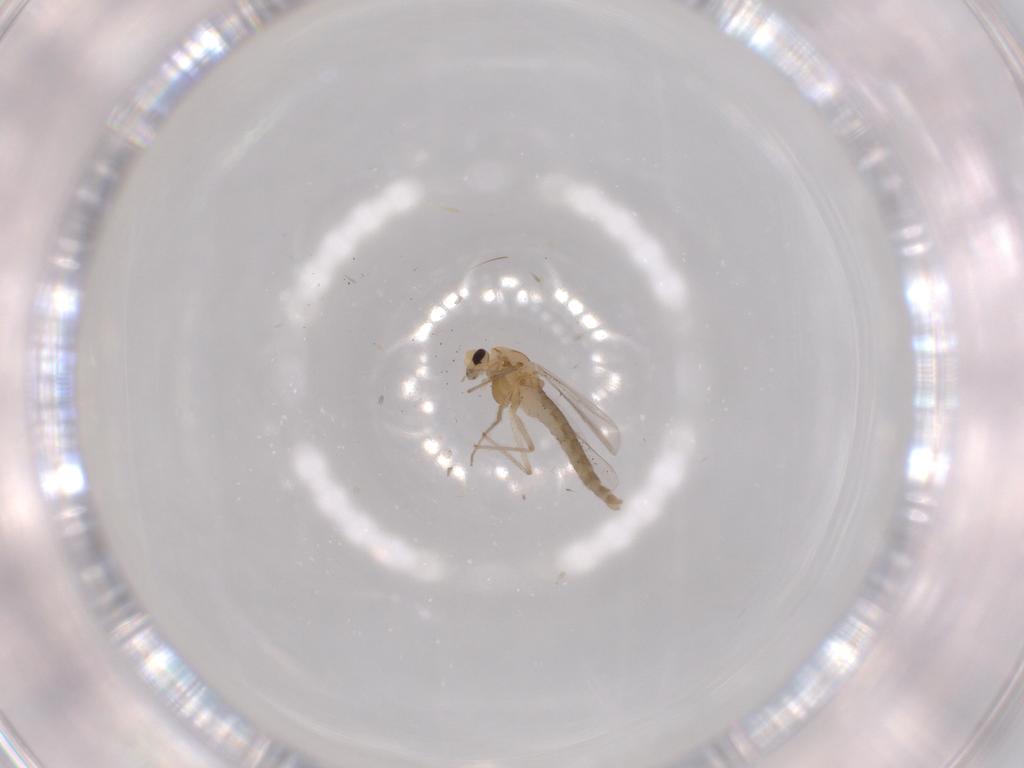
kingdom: Animalia
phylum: Arthropoda
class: Insecta
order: Diptera
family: Chironomidae
